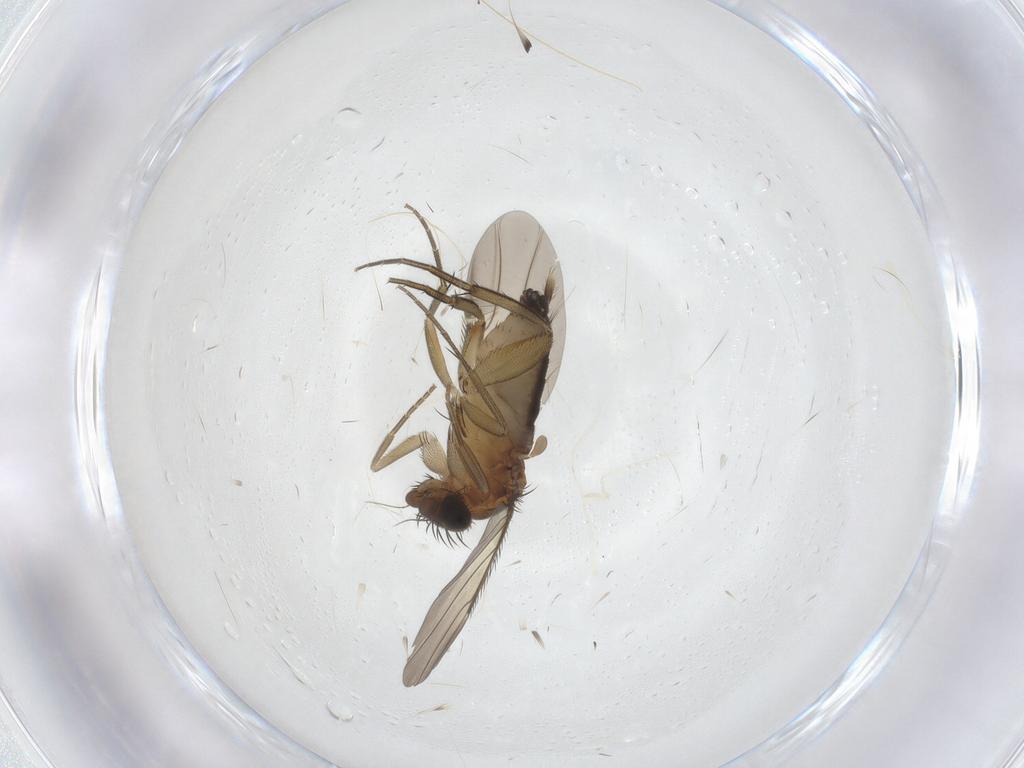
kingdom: Animalia
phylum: Arthropoda
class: Insecta
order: Diptera
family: Phoridae
